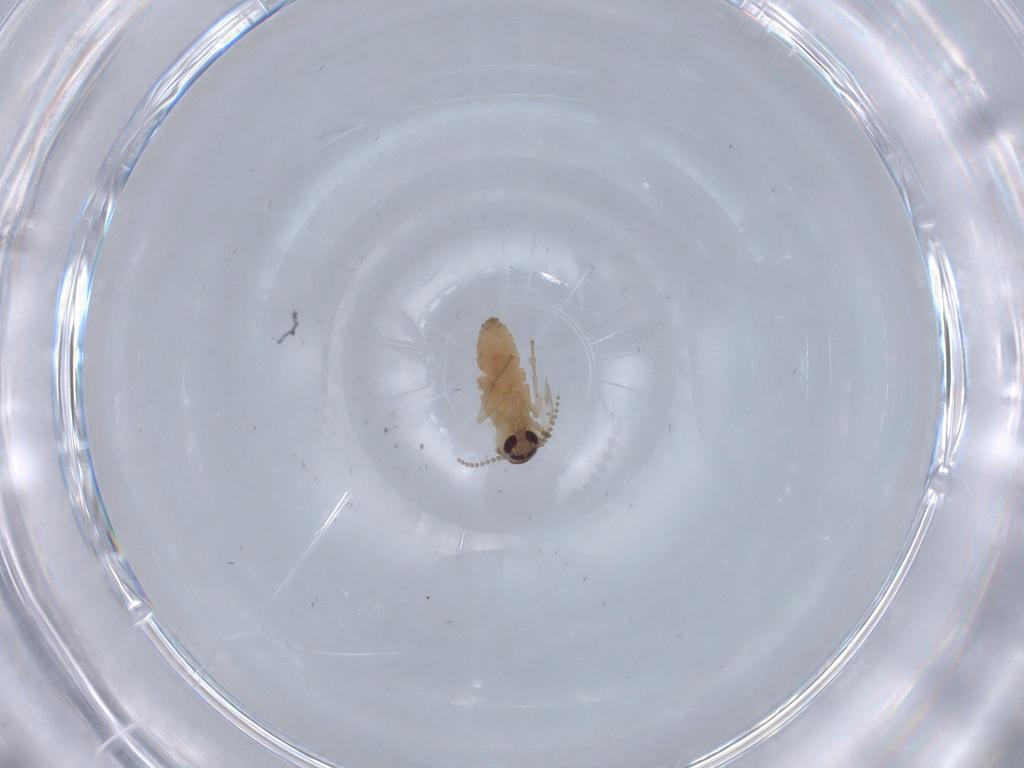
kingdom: Animalia
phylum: Arthropoda
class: Insecta
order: Diptera
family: Psychodidae
